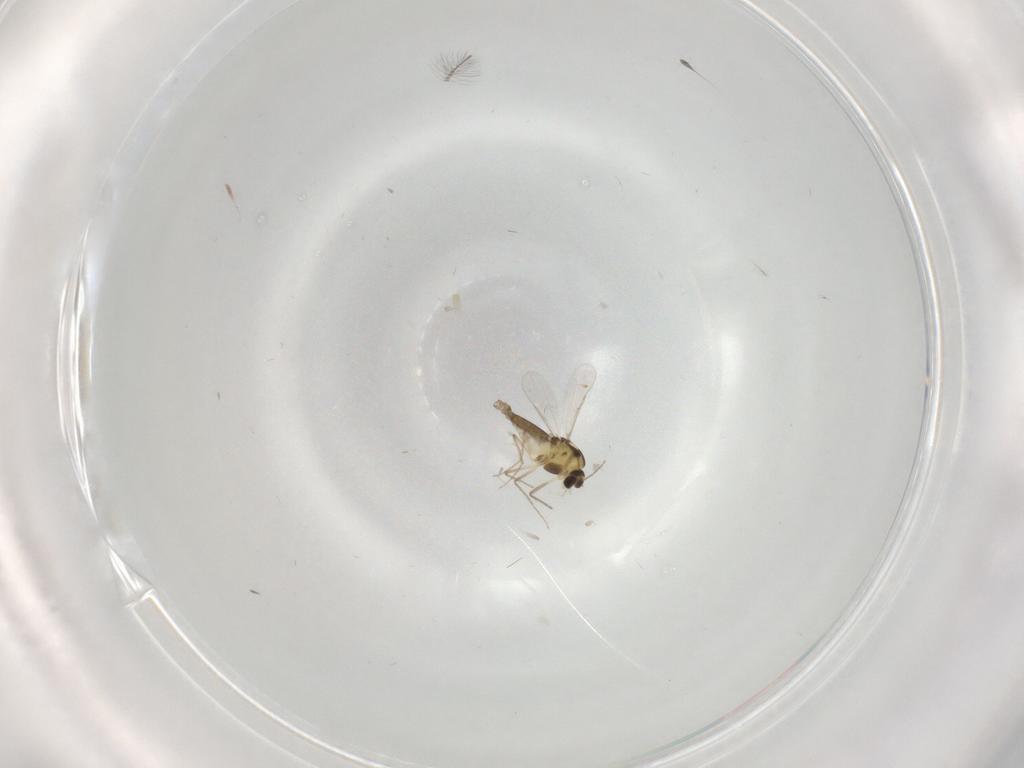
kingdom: Animalia
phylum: Arthropoda
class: Insecta
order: Diptera
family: Chironomidae
